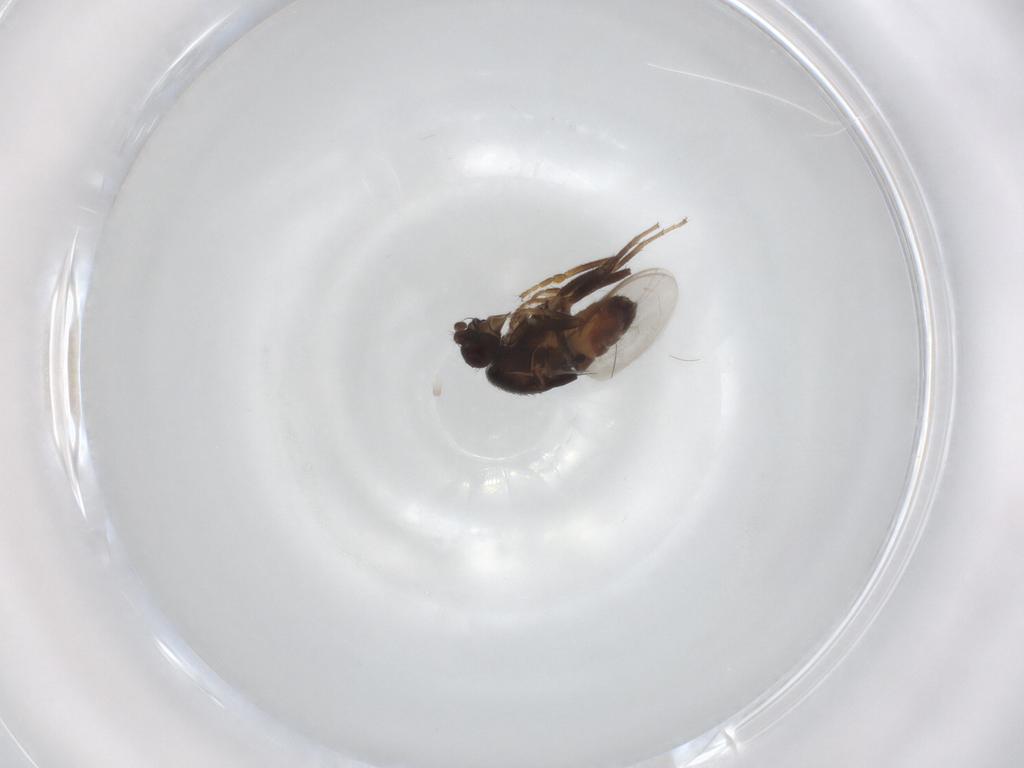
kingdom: Animalia
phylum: Arthropoda
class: Insecta
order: Diptera
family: Sphaeroceridae
